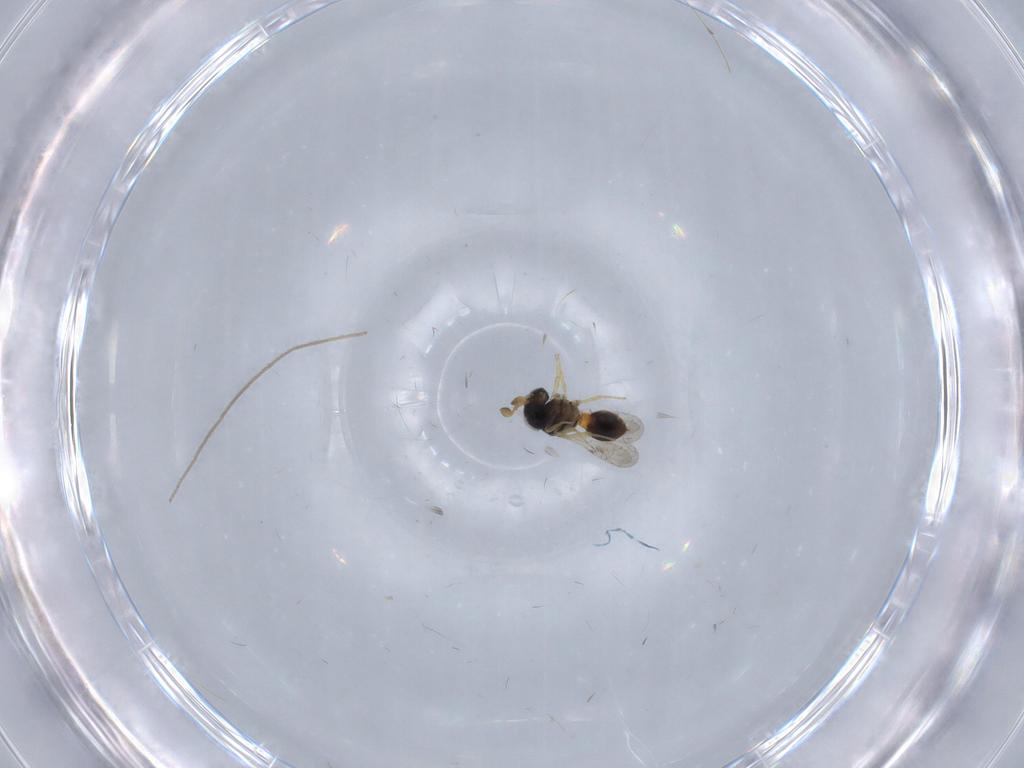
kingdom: Animalia
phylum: Arthropoda
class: Insecta
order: Hymenoptera
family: Scelionidae
